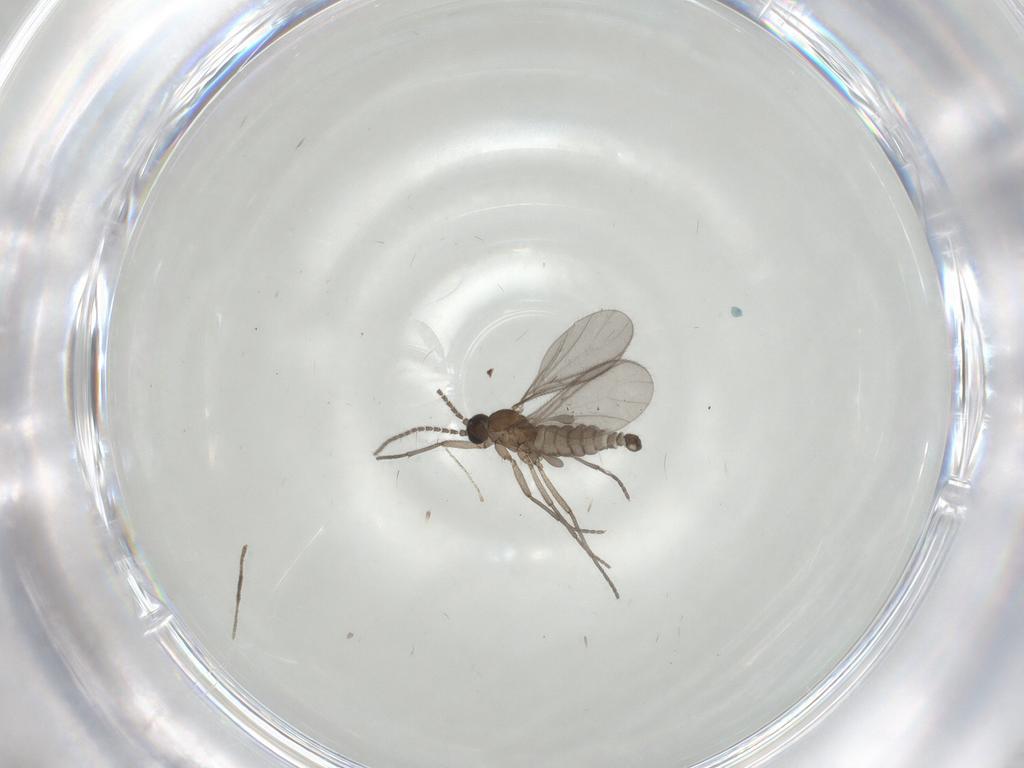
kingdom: Animalia
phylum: Arthropoda
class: Insecta
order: Diptera
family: Sciaridae
